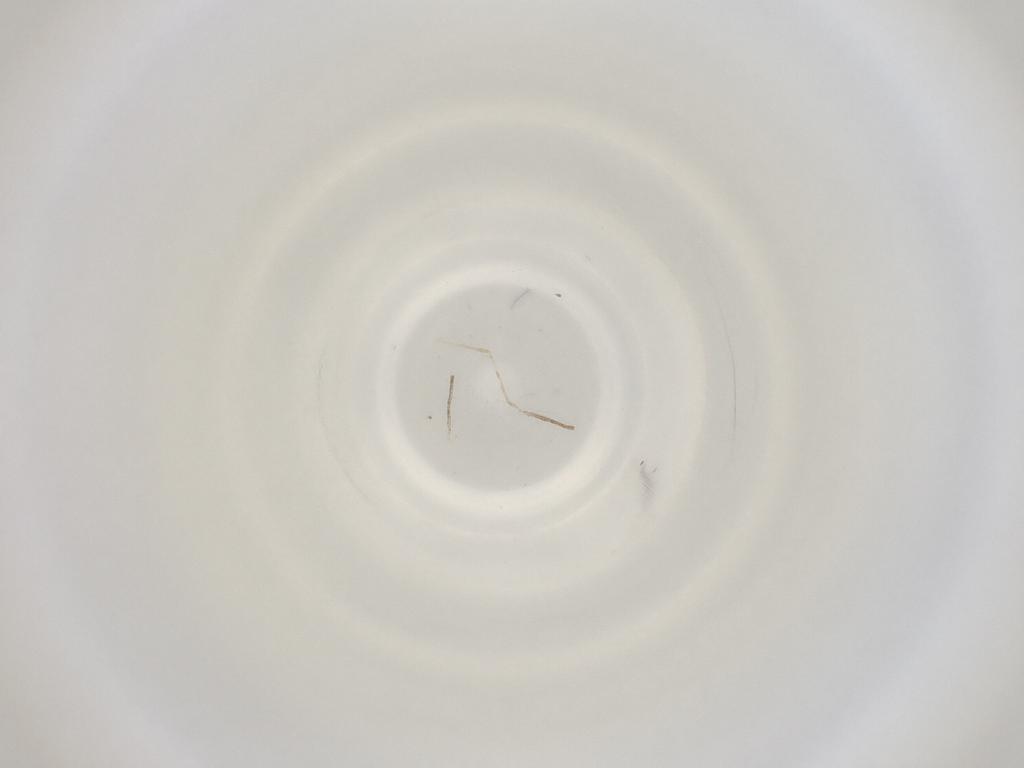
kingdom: Animalia
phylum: Arthropoda
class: Insecta
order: Diptera
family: Cecidomyiidae
